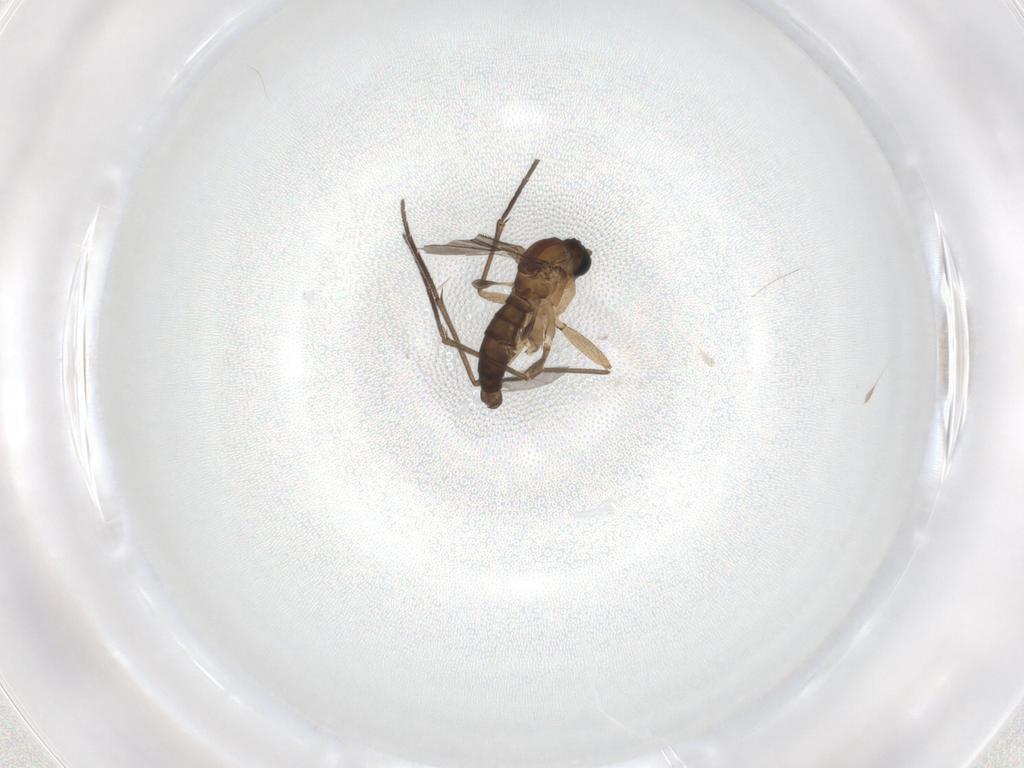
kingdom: Animalia
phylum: Arthropoda
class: Insecta
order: Diptera
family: Sciaridae
